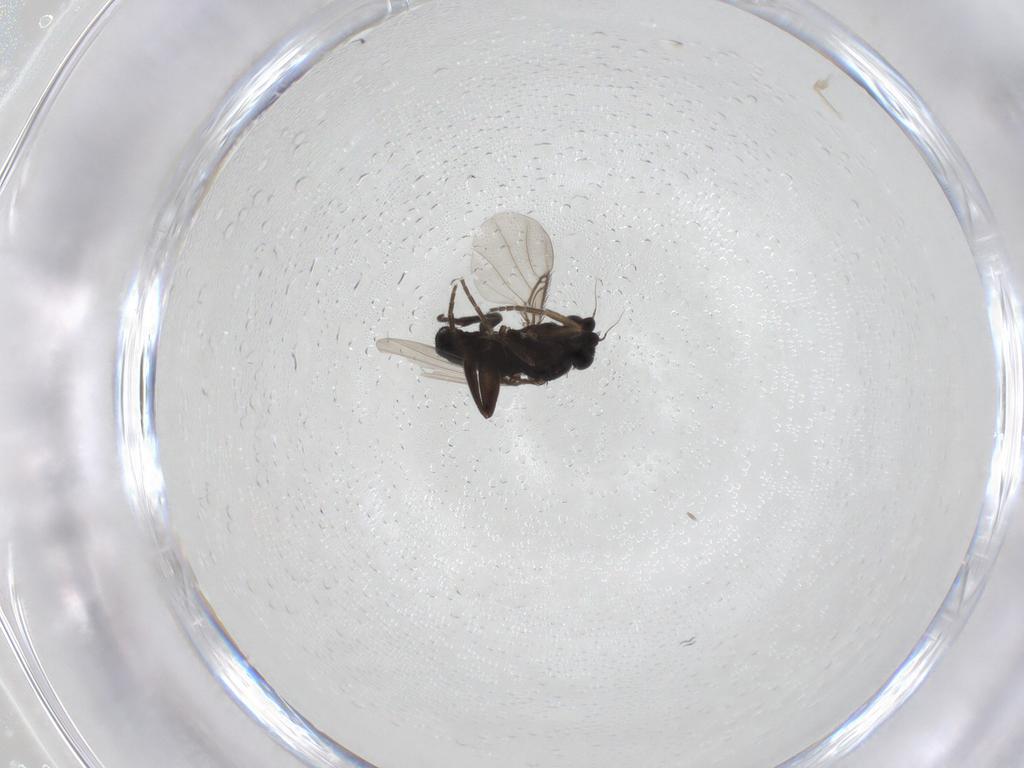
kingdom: Animalia
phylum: Arthropoda
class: Insecta
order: Diptera
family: Phoridae
